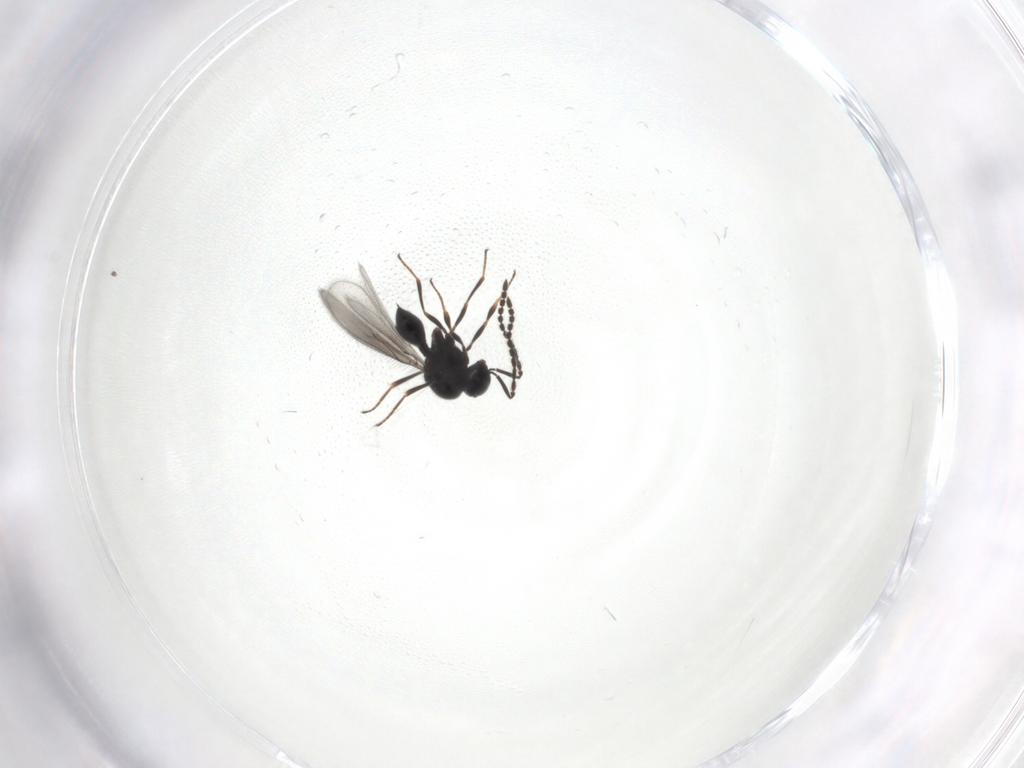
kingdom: Animalia
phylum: Arthropoda
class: Insecta
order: Hymenoptera
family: Scelionidae
